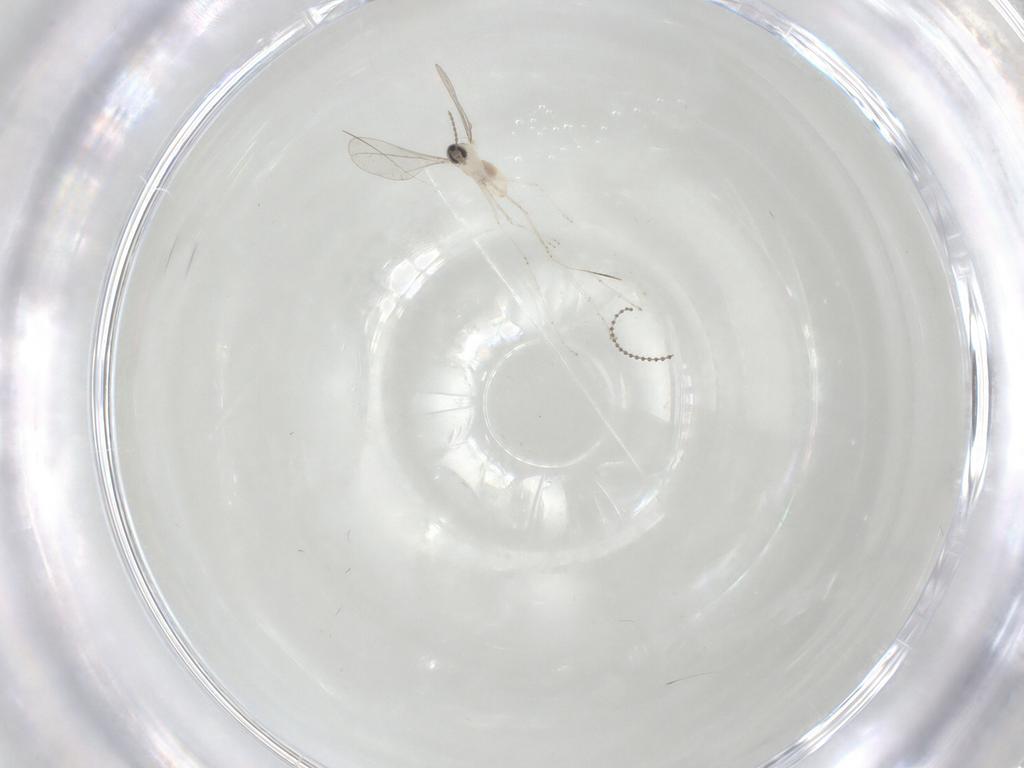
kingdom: Animalia
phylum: Arthropoda
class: Insecta
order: Diptera
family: Cecidomyiidae
